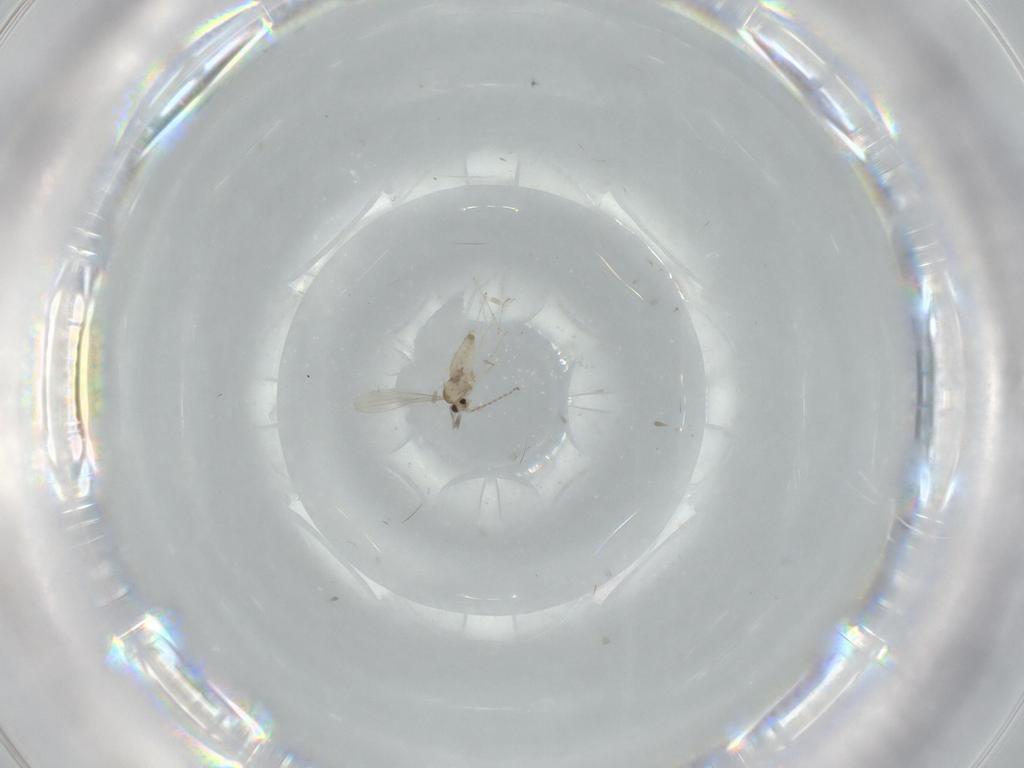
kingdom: Animalia
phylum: Arthropoda
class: Insecta
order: Diptera
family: Cecidomyiidae
